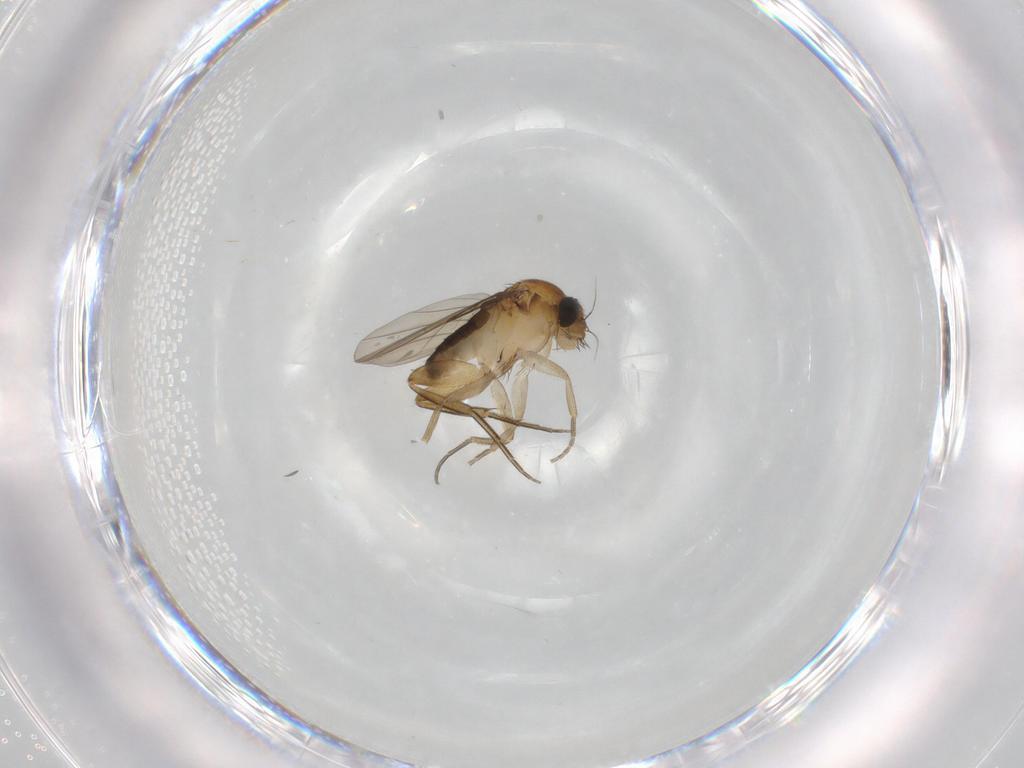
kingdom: Animalia
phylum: Arthropoda
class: Insecta
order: Diptera
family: Phoridae
